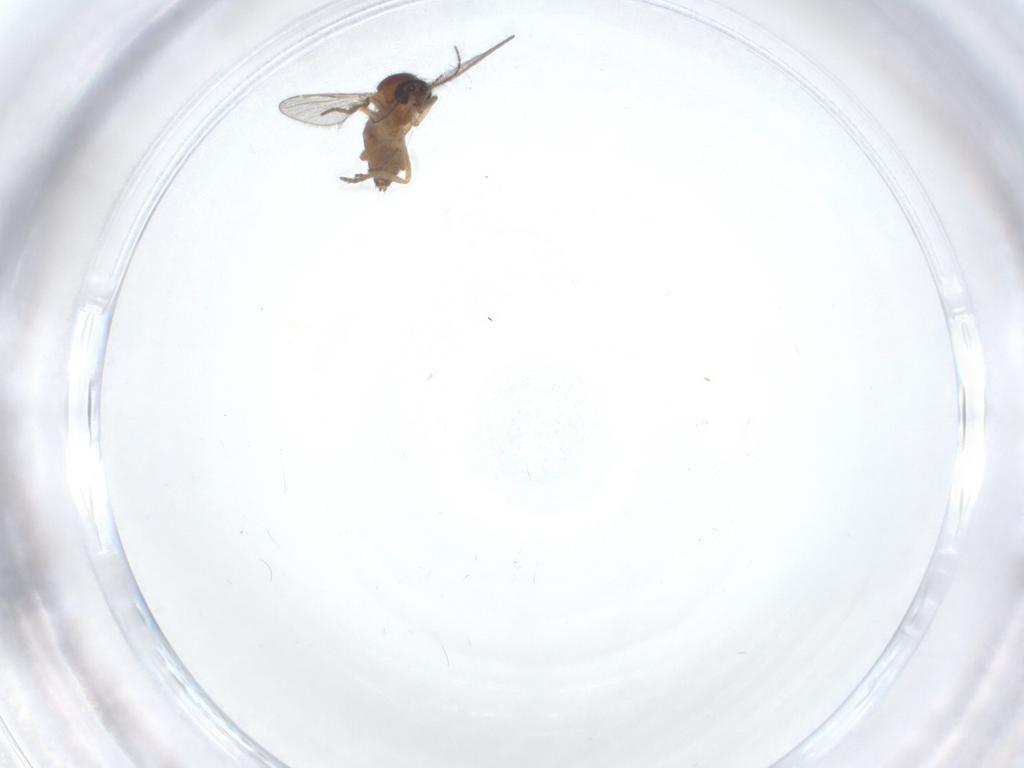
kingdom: Animalia
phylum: Arthropoda
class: Insecta
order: Diptera
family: Ceratopogonidae
